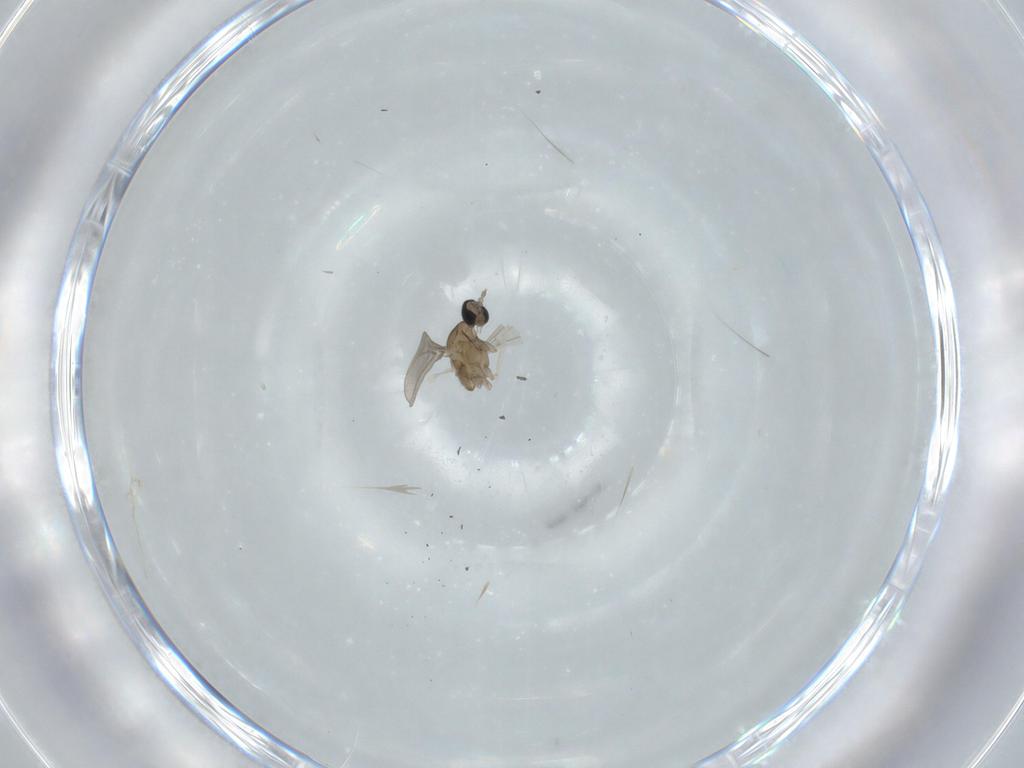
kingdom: Animalia
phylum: Arthropoda
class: Insecta
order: Diptera
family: Cecidomyiidae
